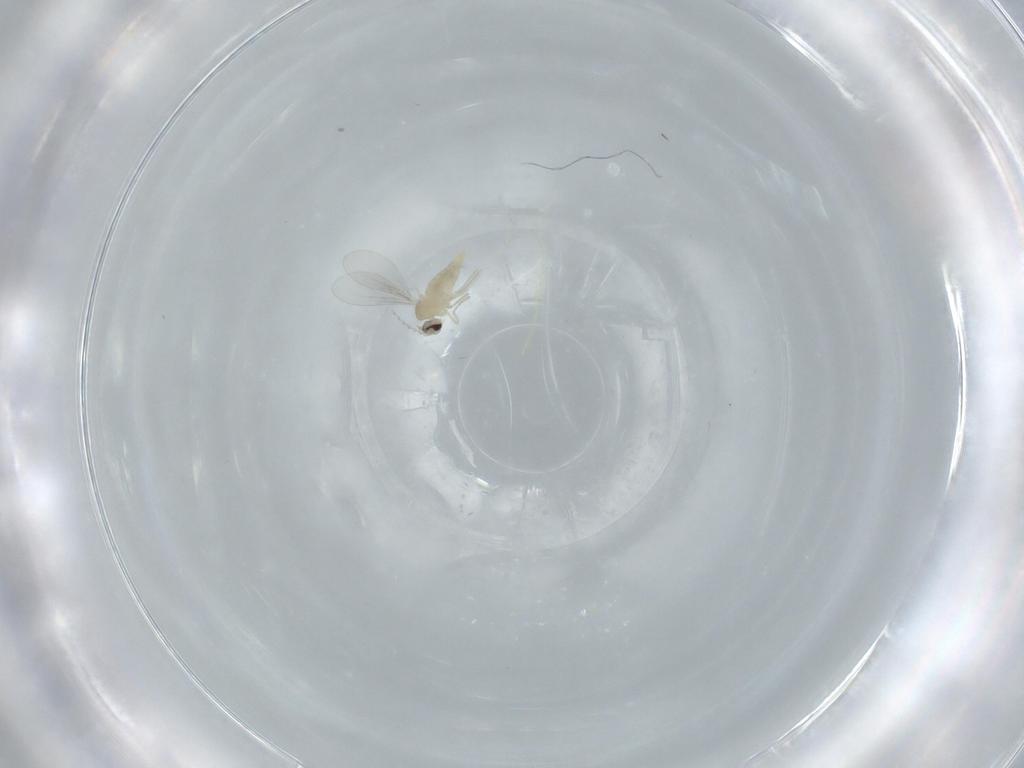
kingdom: Animalia
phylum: Arthropoda
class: Insecta
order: Diptera
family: Cecidomyiidae
